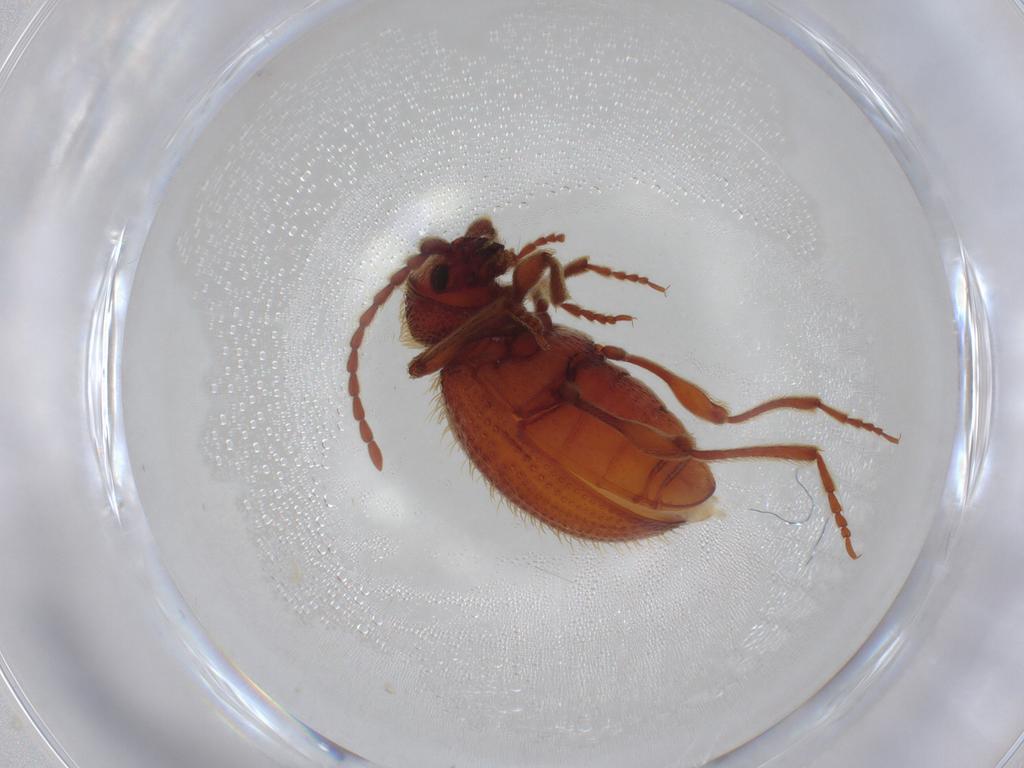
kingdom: Animalia
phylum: Arthropoda
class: Insecta
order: Coleoptera
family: Ptinidae
